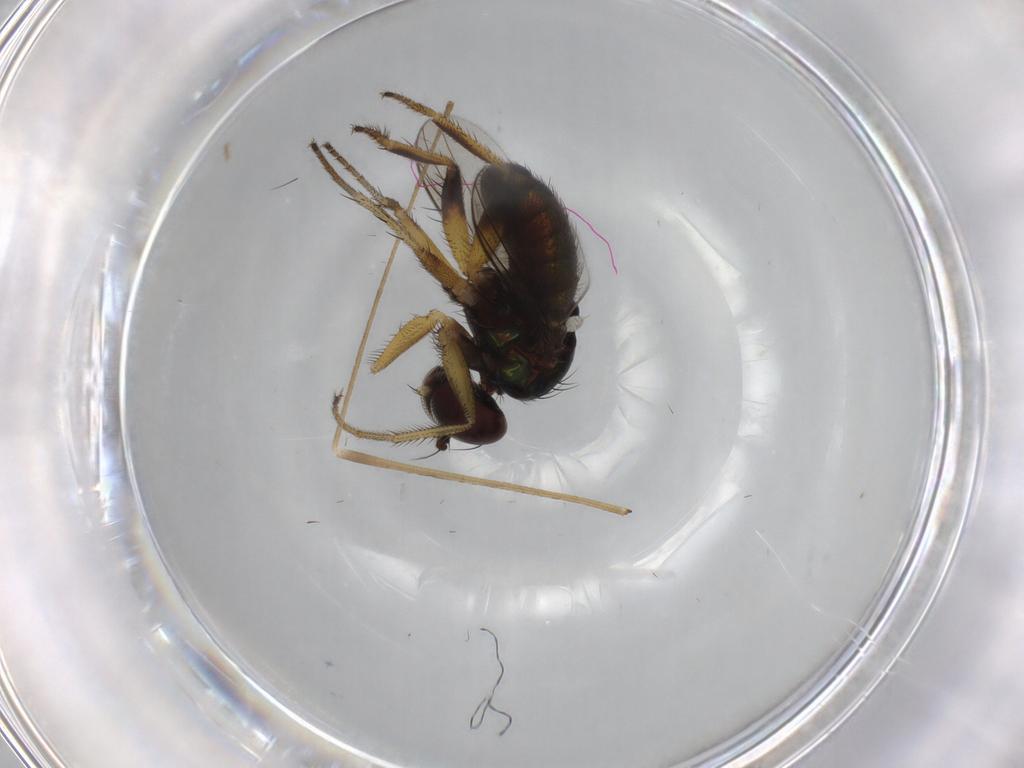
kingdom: Animalia
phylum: Arthropoda
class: Insecta
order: Diptera
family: Dolichopodidae
